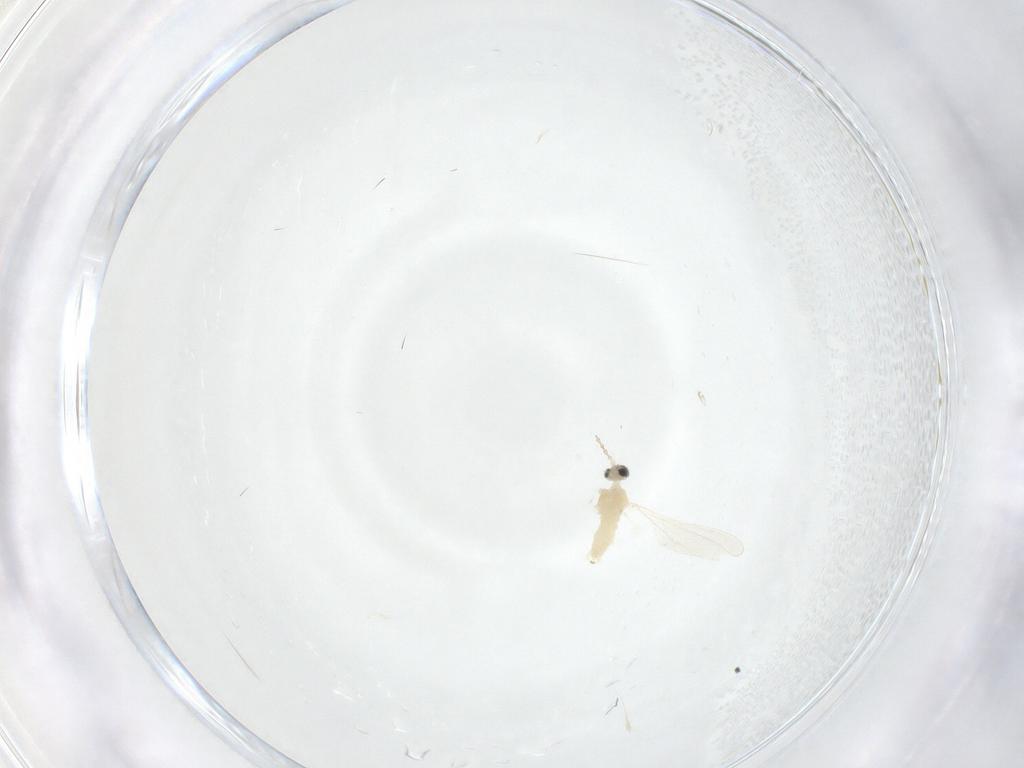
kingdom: Animalia
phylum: Arthropoda
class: Insecta
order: Diptera
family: Cecidomyiidae
